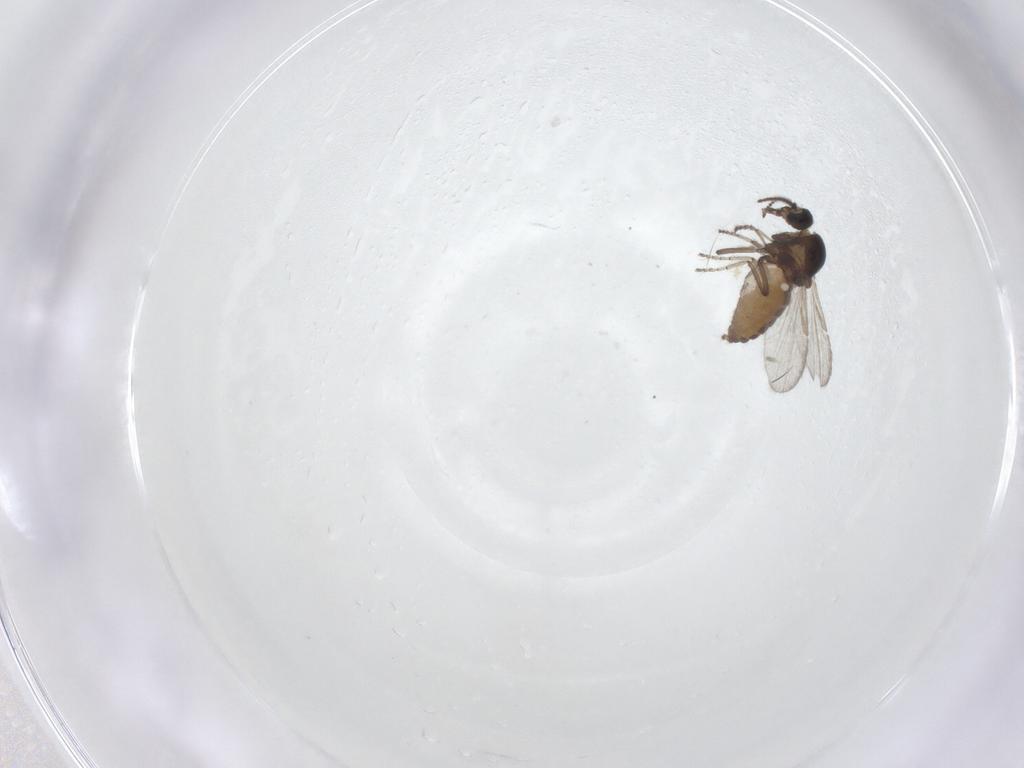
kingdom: Animalia
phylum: Arthropoda
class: Insecta
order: Diptera
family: Ceratopogonidae
